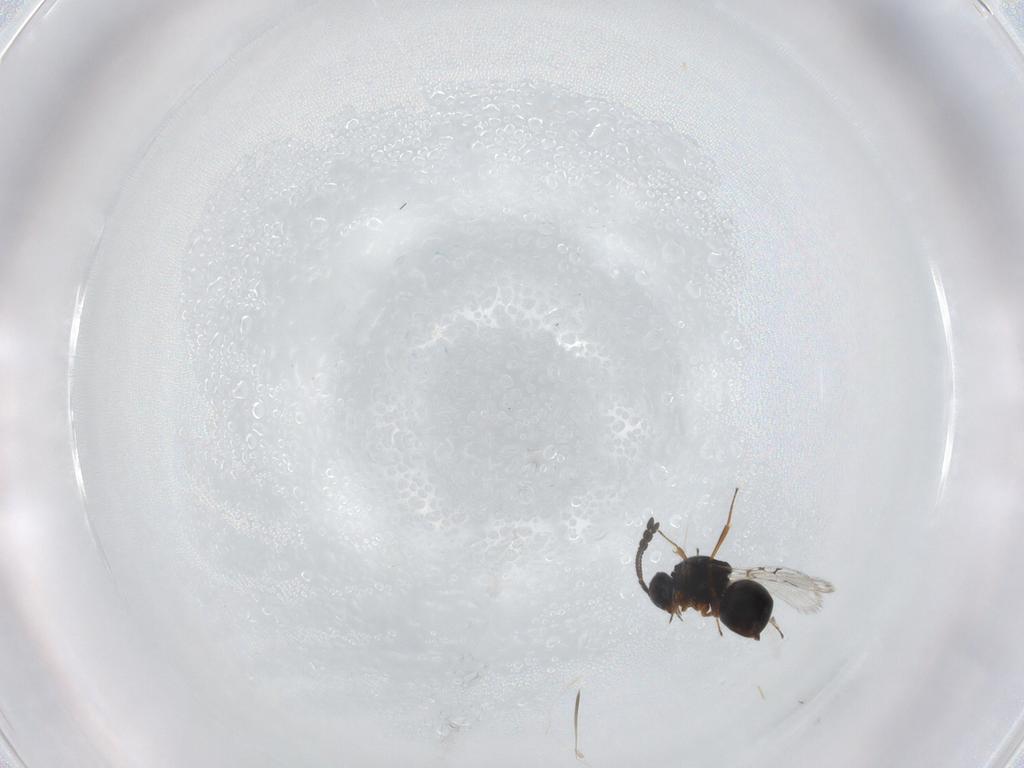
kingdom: Animalia
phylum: Arthropoda
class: Insecta
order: Hymenoptera
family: Figitidae
